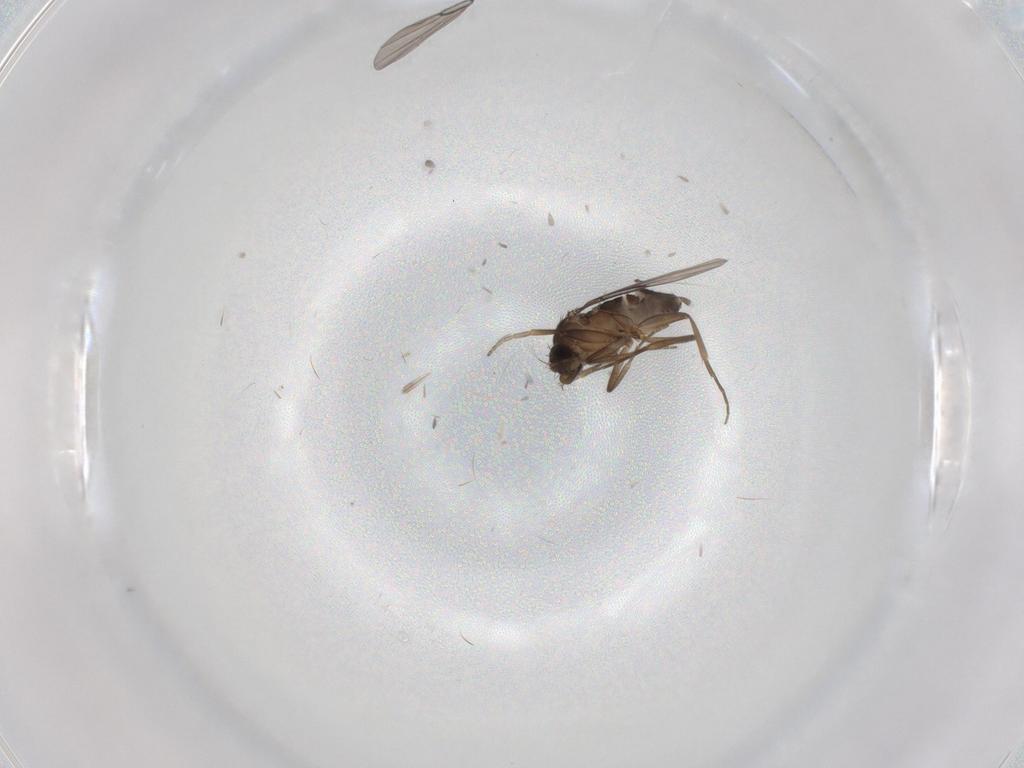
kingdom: Animalia
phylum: Arthropoda
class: Insecta
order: Diptera
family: Phoridae
